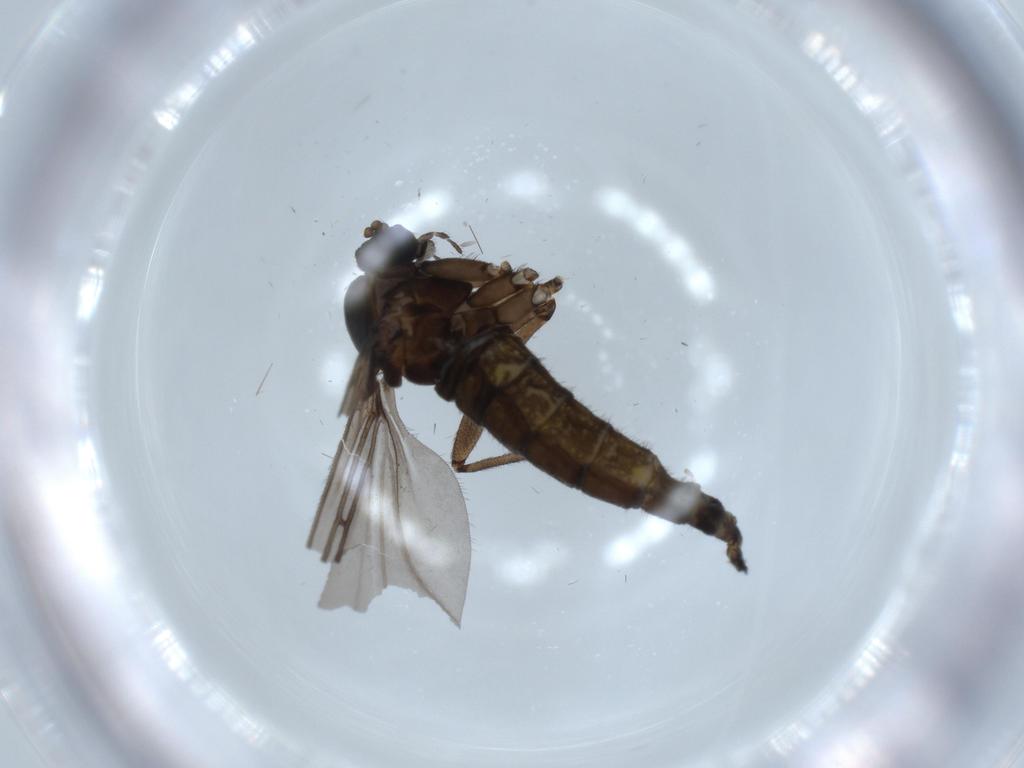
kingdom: Animalia
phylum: Arthropoda
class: Insecta
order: Diptera
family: Sciaridae
